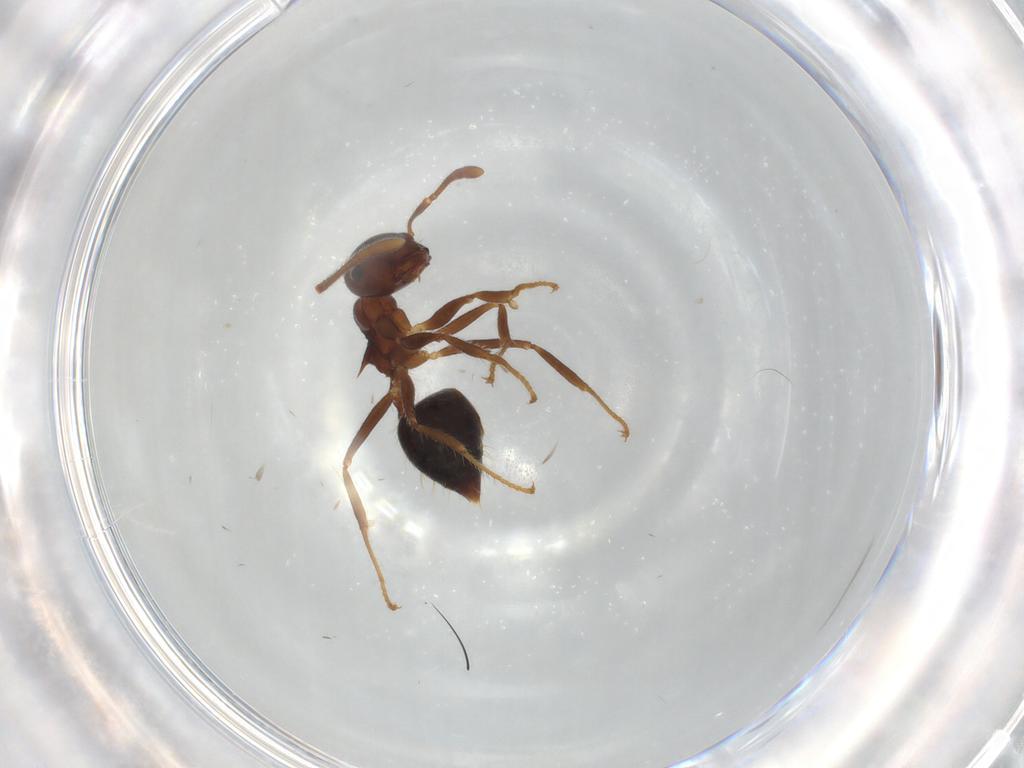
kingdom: Animalia
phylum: Arthropoda
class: Insecta
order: Hymenoptera
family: Formicidae
